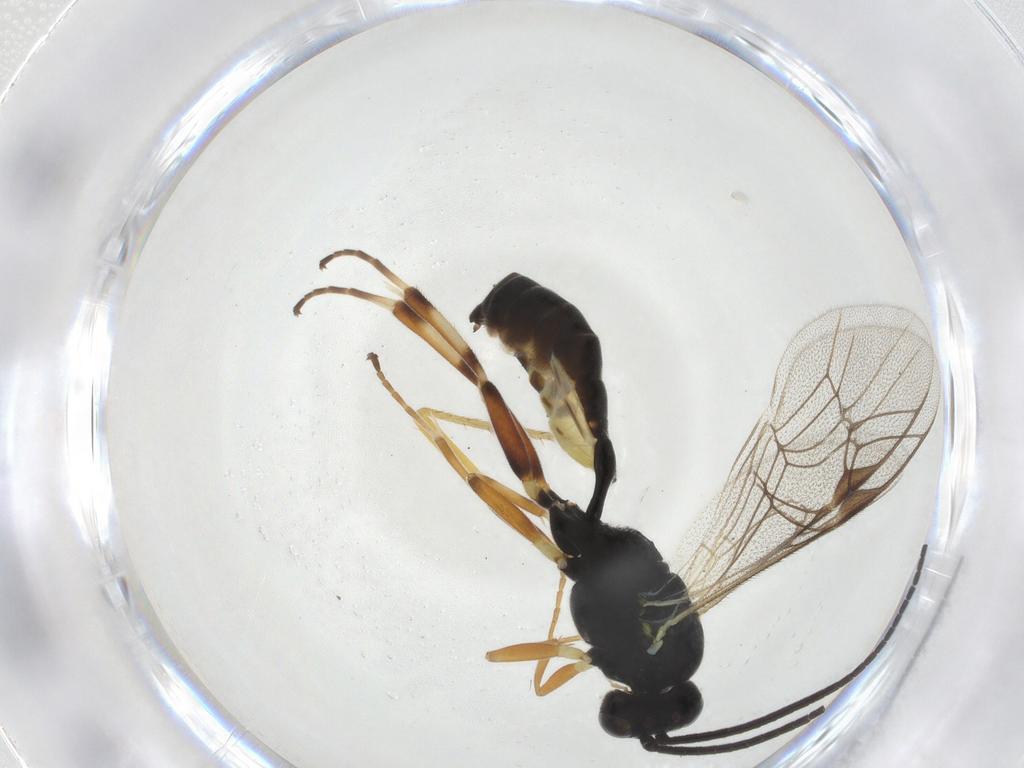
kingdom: Animalia
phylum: Arthropoda
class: Insecta
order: Hymenoptera
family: Ichneumonidae
